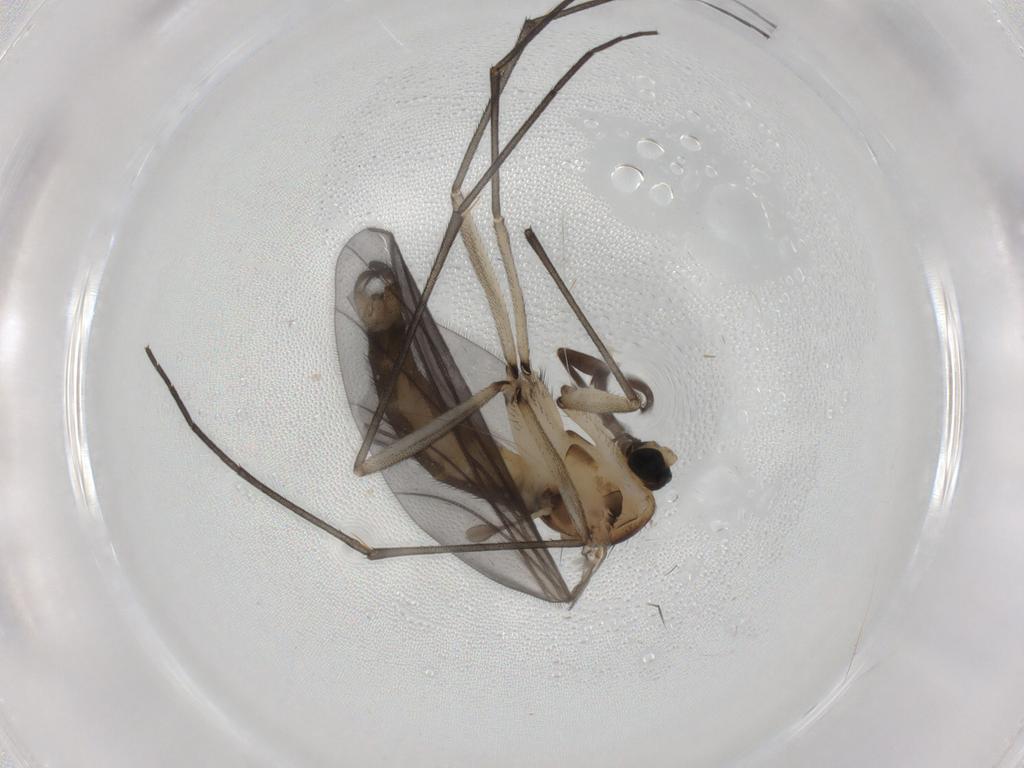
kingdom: Animalia
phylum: Arthropoda
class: Insecta
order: Diptera
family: Sciaridae
